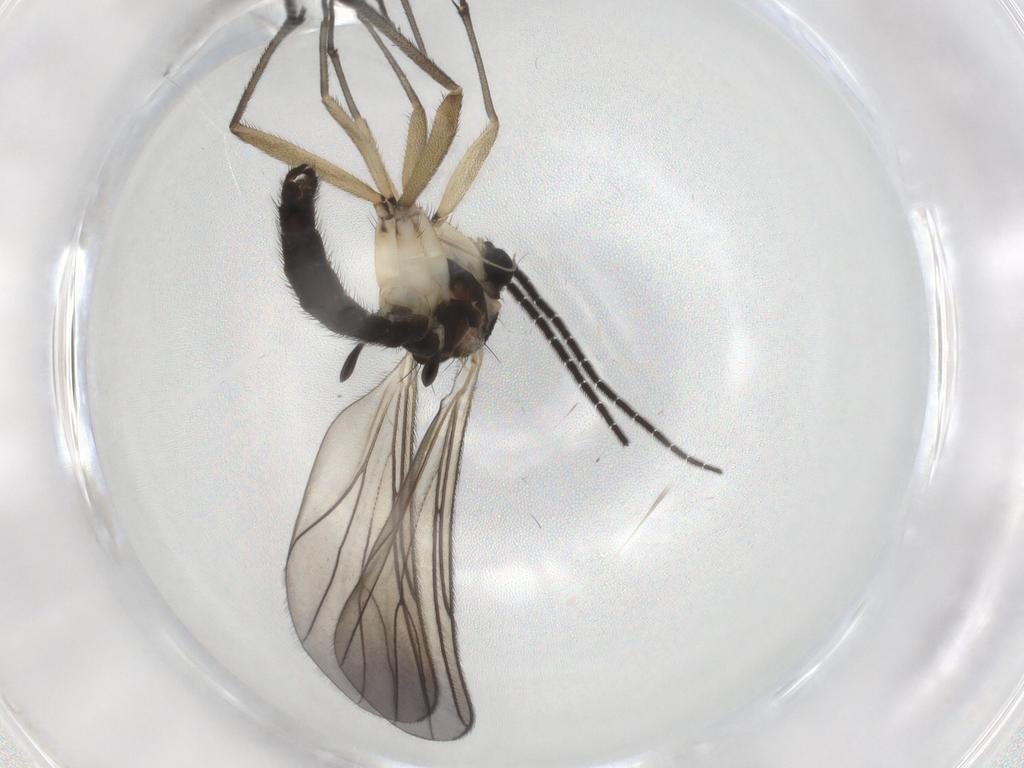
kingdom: Animalia
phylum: Arthropoda
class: Insecta
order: Diptera
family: Sciaridae
